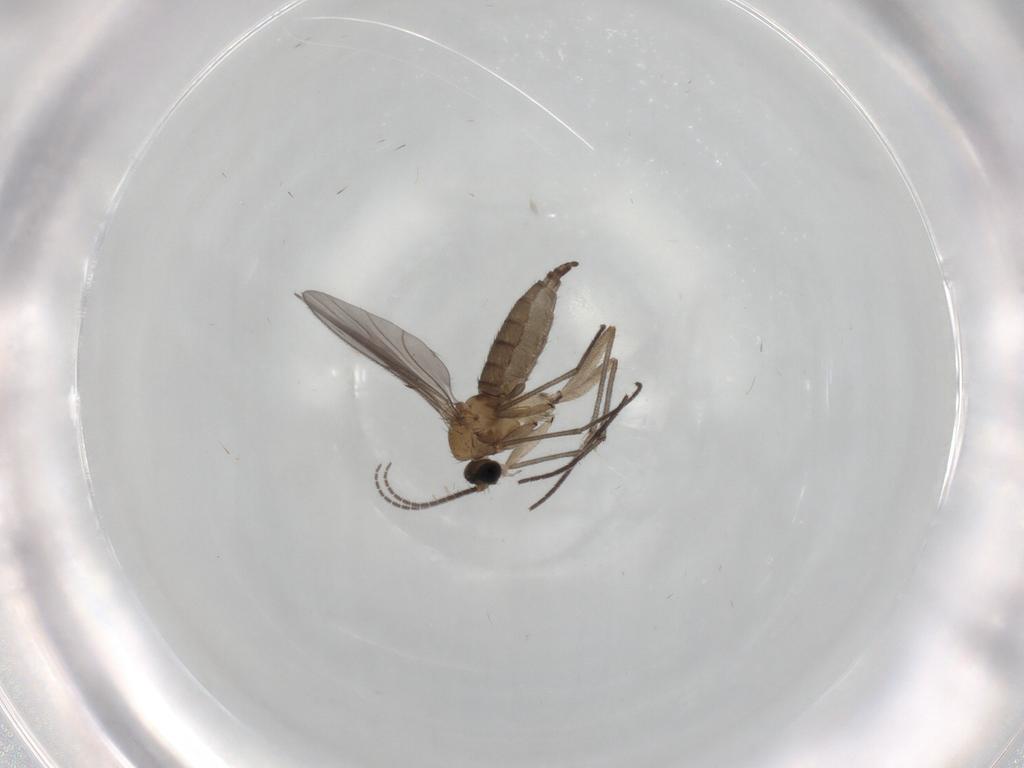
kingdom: Animalia
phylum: Arthropoda
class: Insecta
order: Diptera
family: Sciaridae
